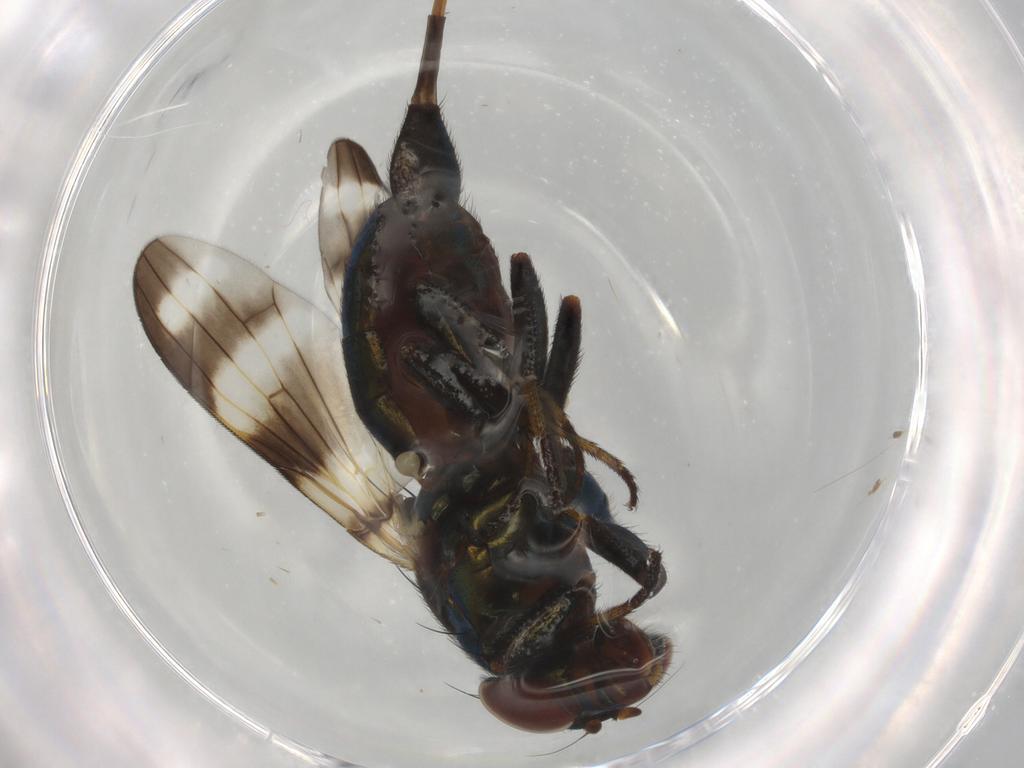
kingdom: Animalia
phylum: Arthropoda
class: Insecta
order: Diptera
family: Ulidiidae
